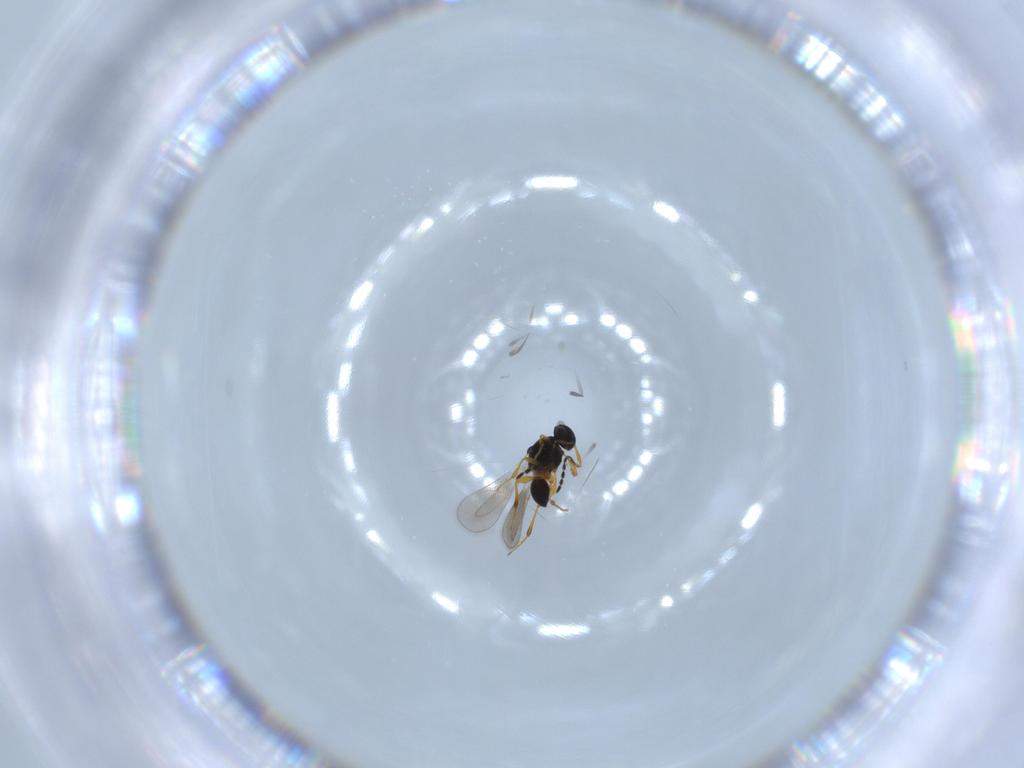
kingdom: Animalia
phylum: Arthropoda
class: Insecta
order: Hymenoptera
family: Platygastridae
